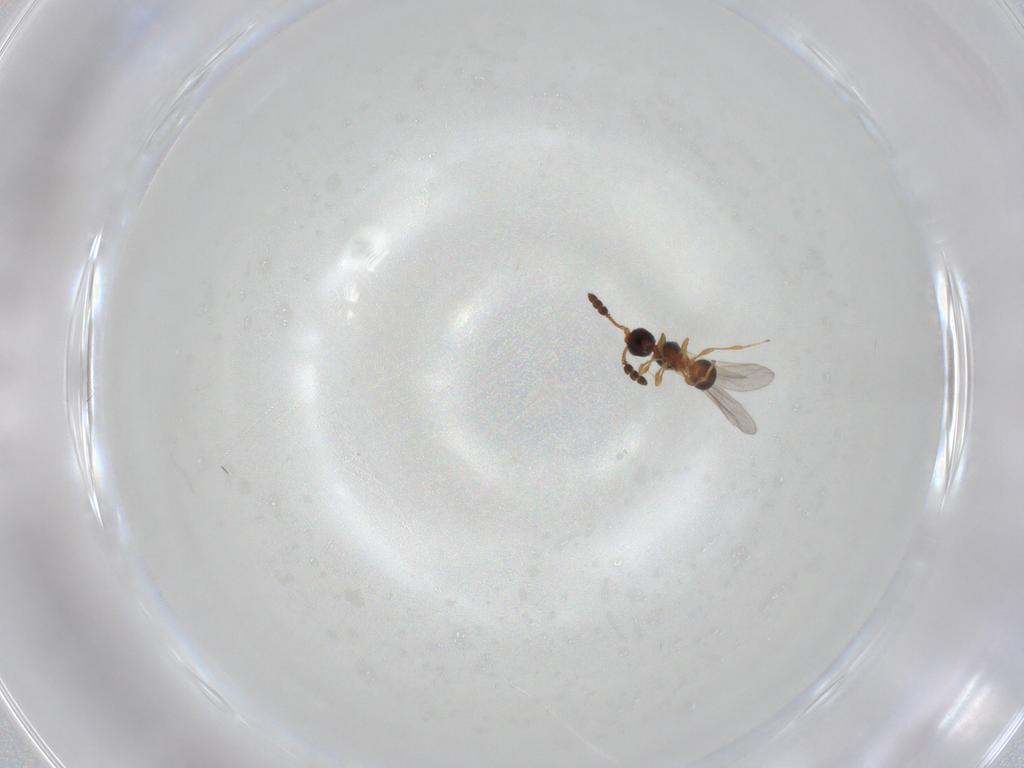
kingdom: Animalia
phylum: Arthropoda
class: Insecta
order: Hymenoptera
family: Diapriidae
